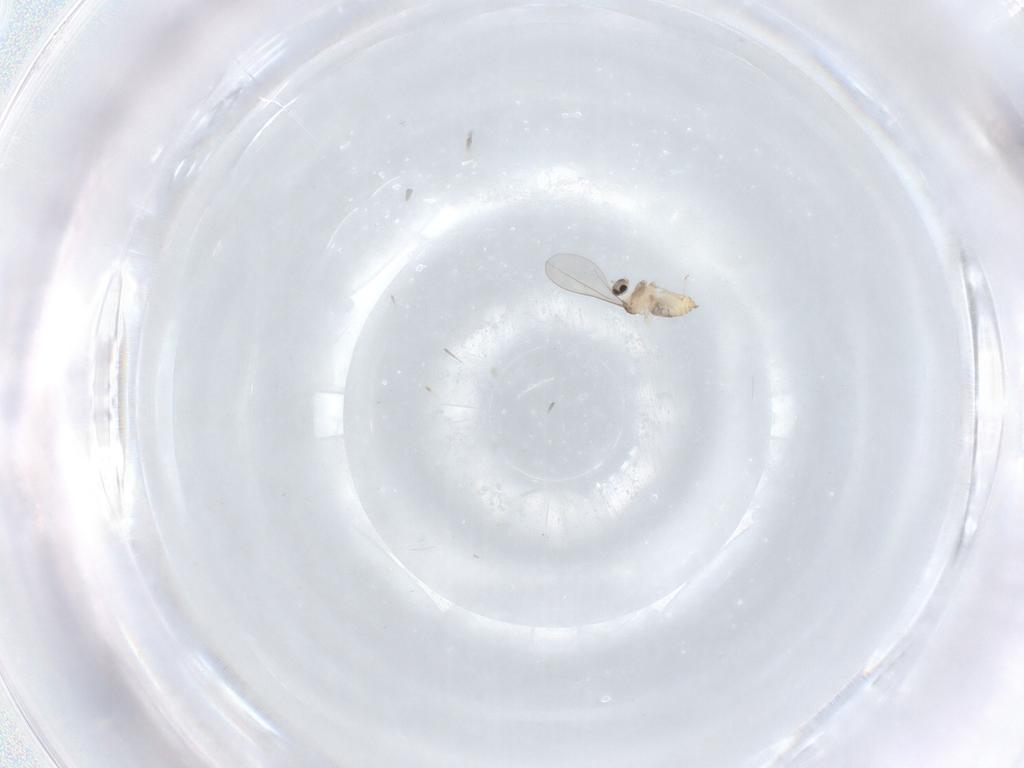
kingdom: Animalia
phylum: Arthropoda
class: Insecta
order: Diptera
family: Cecidomyiidae
